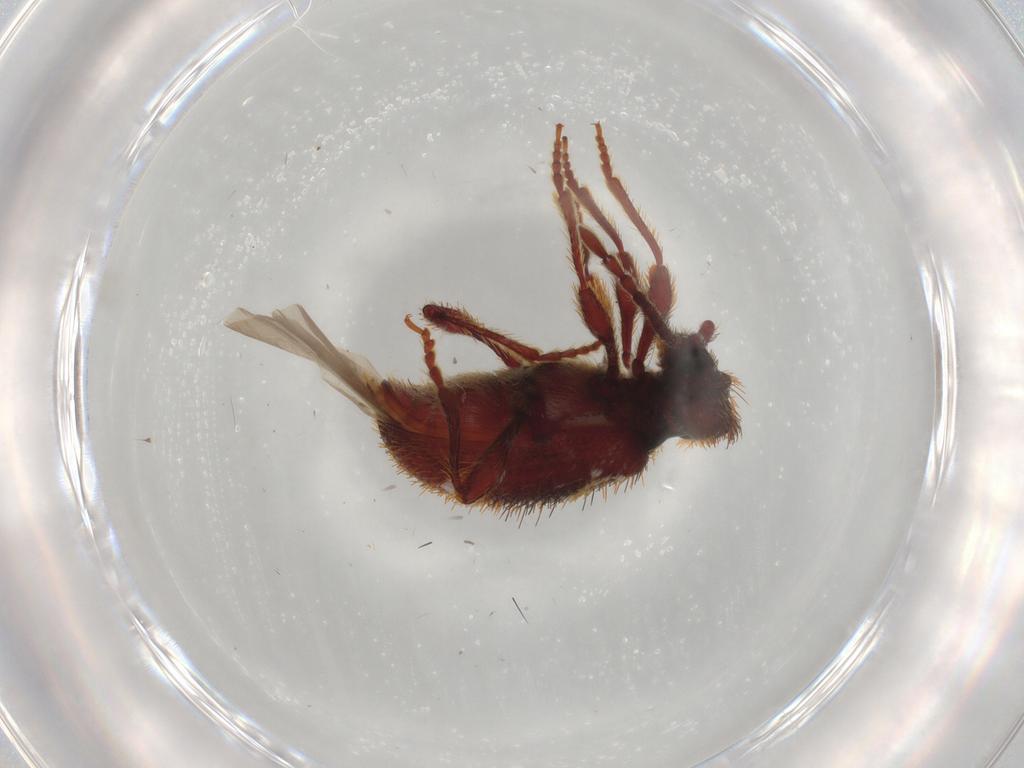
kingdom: Animalia
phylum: Arthropoda
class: Insecta
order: Coleoptera
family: Ptinidae
